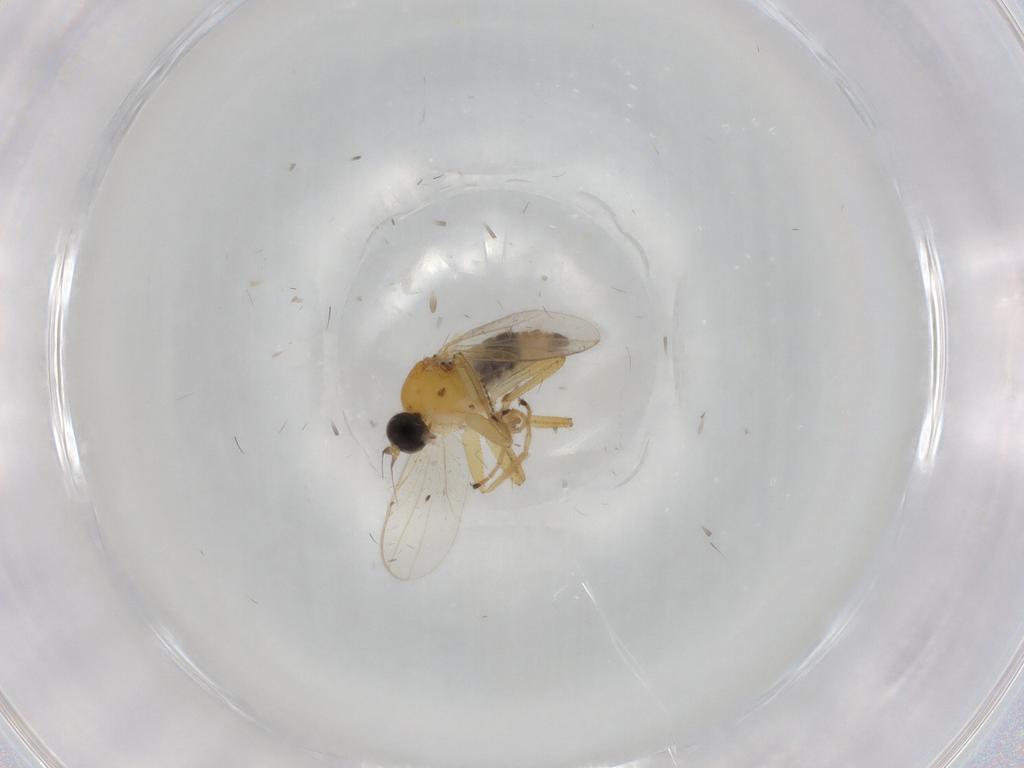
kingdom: Animalia
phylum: Arthropoda
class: Insecta
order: Diptera
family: Hybotidae
